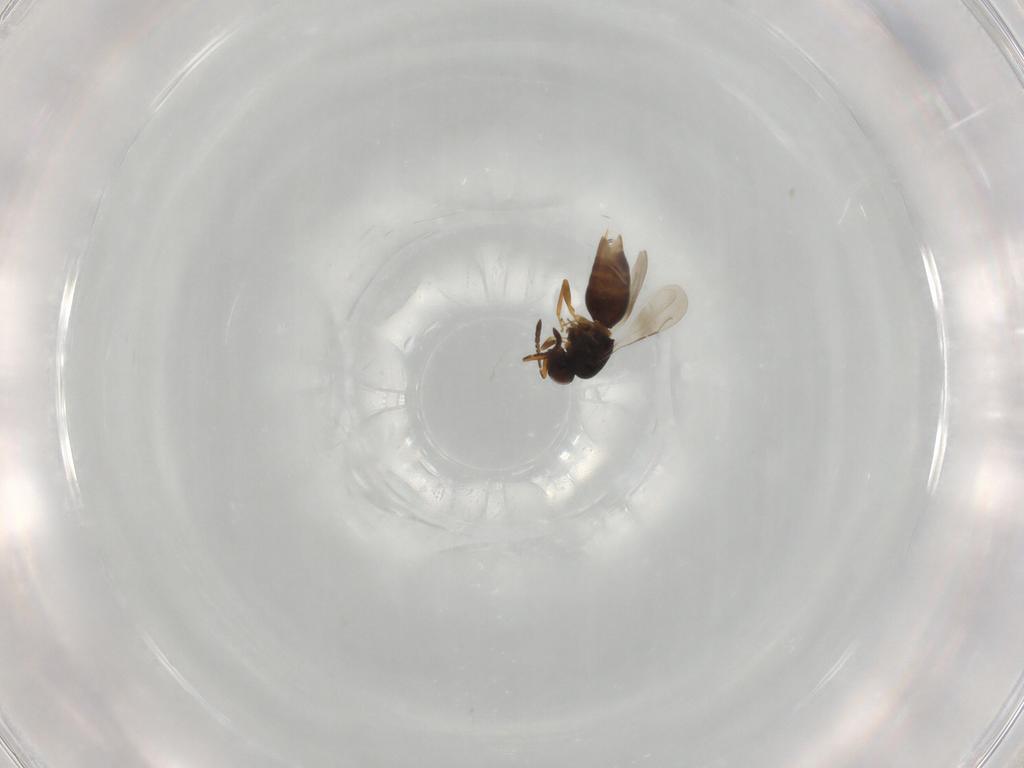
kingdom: Animalia
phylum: Arthropoda
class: Insecta
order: Hymenoptera
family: Ceraphronidae
